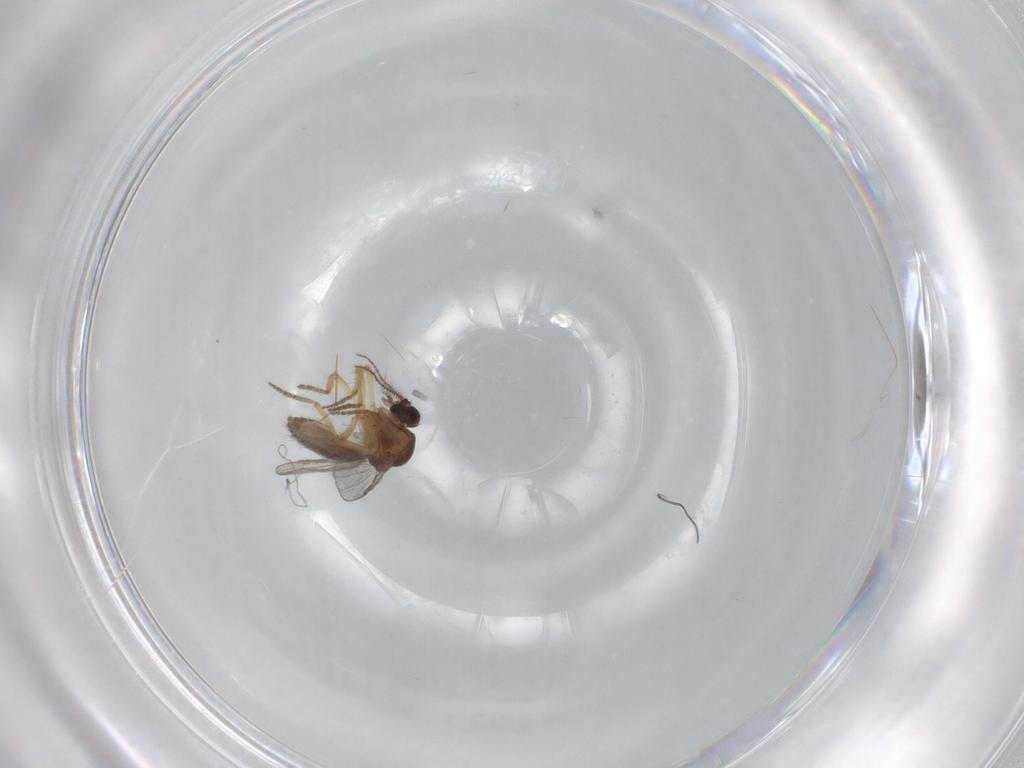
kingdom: Animalia
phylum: Arthropoda
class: Insecta
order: Diptera
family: Ceratopogonidae
